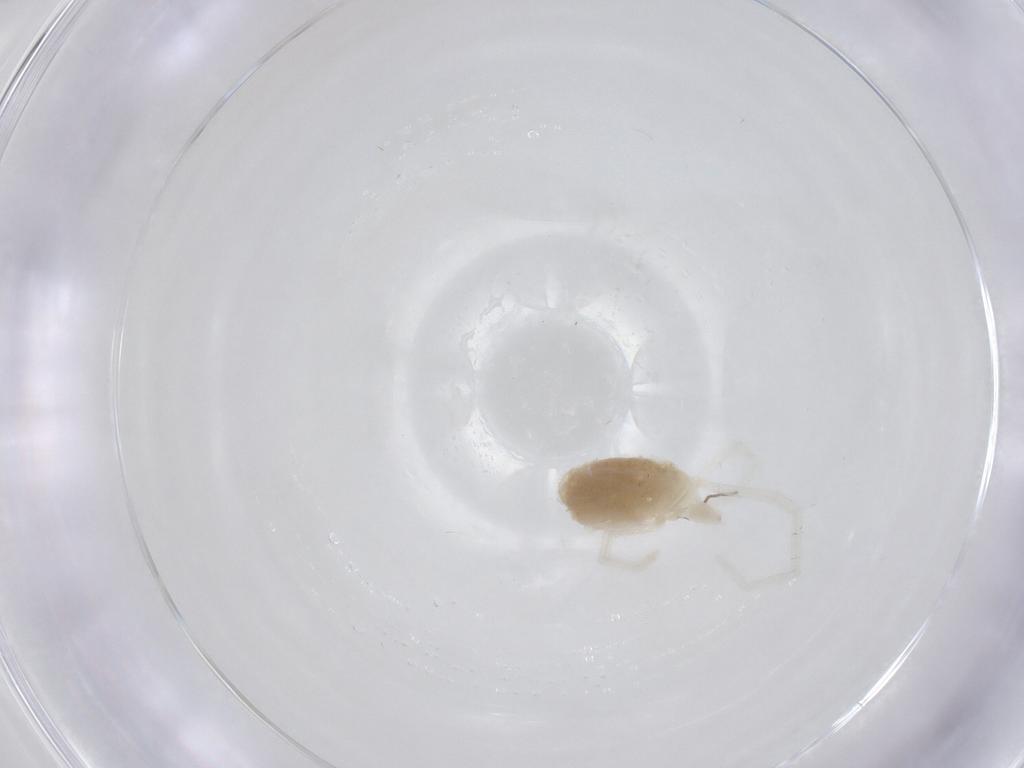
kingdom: Animalia
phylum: Arthropoda
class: Arachnida
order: Trombidiformes
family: Teneriffiidae
